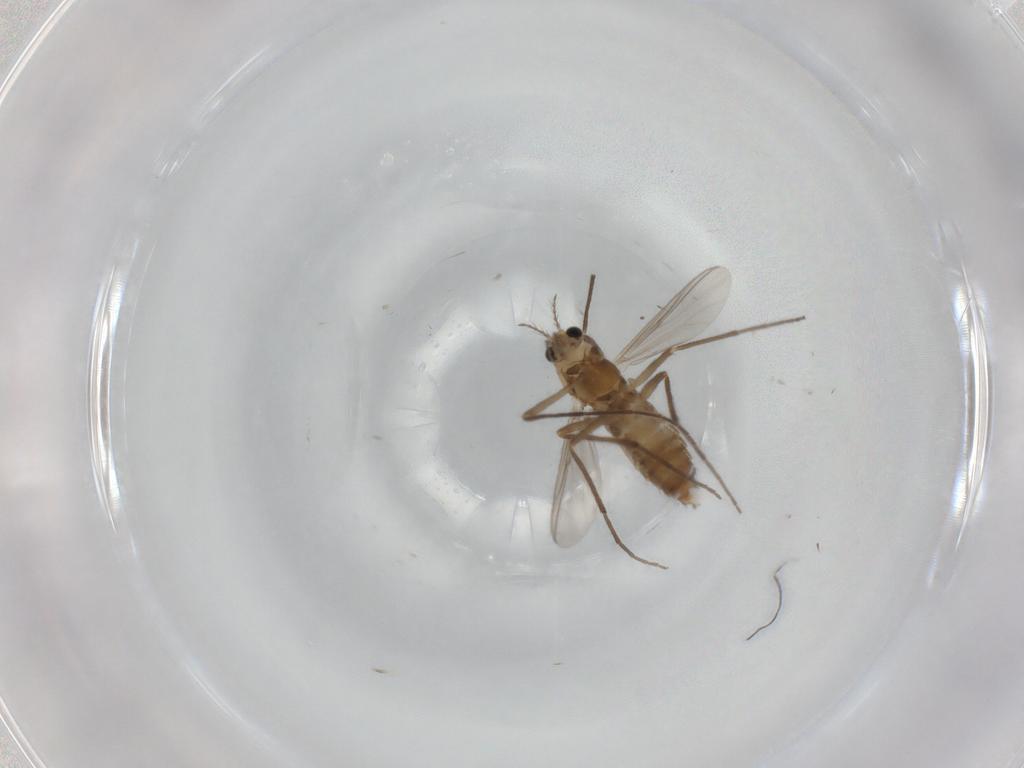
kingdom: Animalia
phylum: Arthropoda
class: Insecta
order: Diptera
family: Chironomidae
